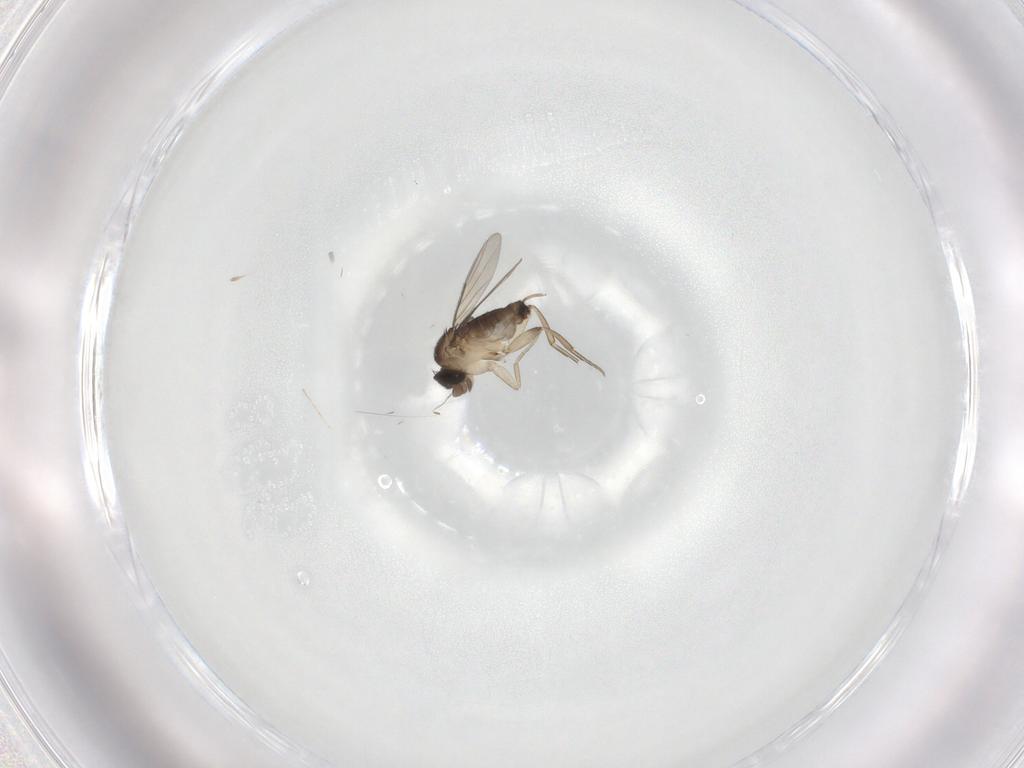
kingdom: Animalia
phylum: Arthropoda
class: Insecta
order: Diptera
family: Phoridae
